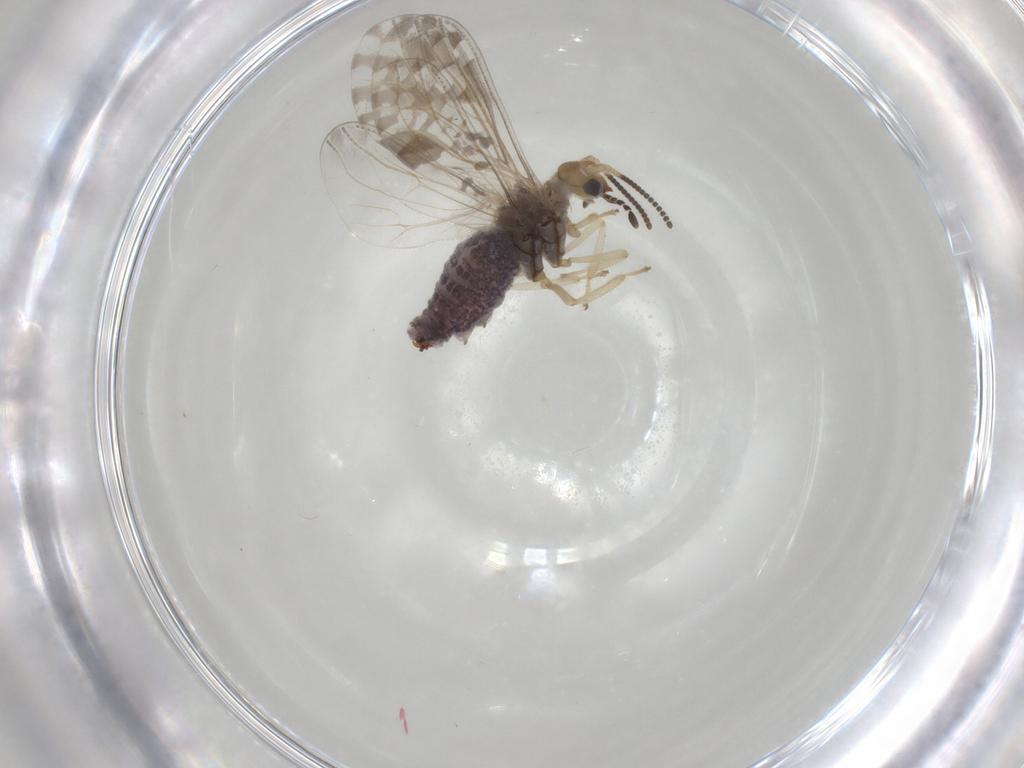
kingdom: Animalia
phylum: Arthropoda
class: Insecta
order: Neuroptera
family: Coniopterygidae
